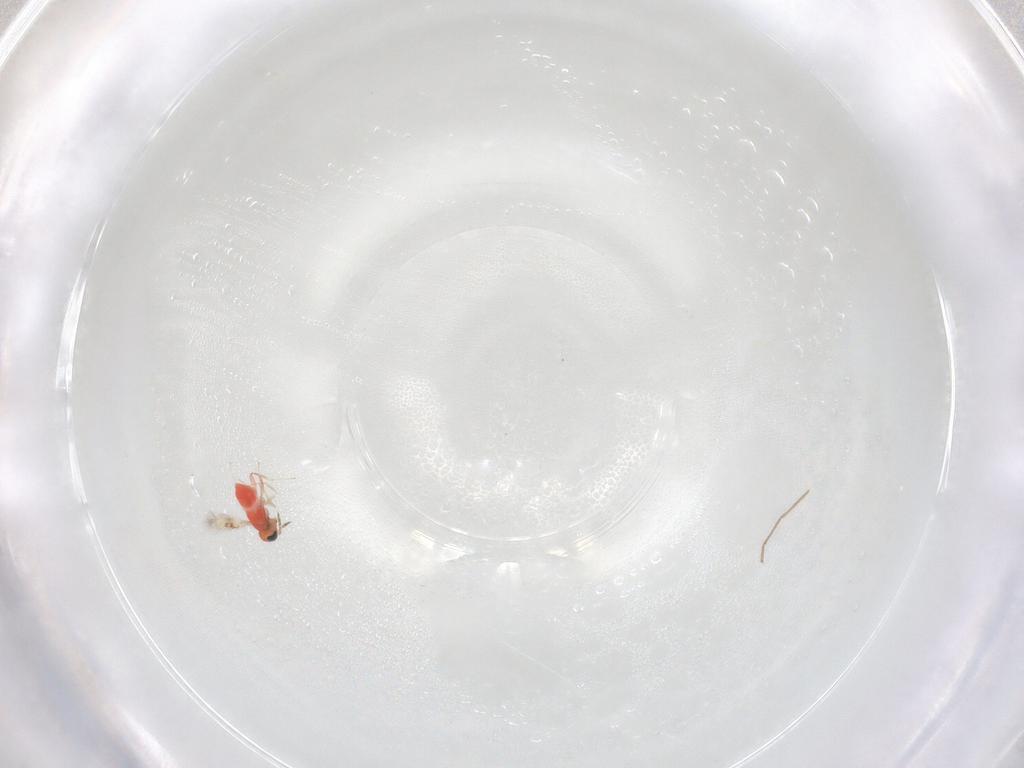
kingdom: Animalia
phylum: Arthropoda
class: Insecta
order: Hymenoptera
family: Trichogrammatidae
